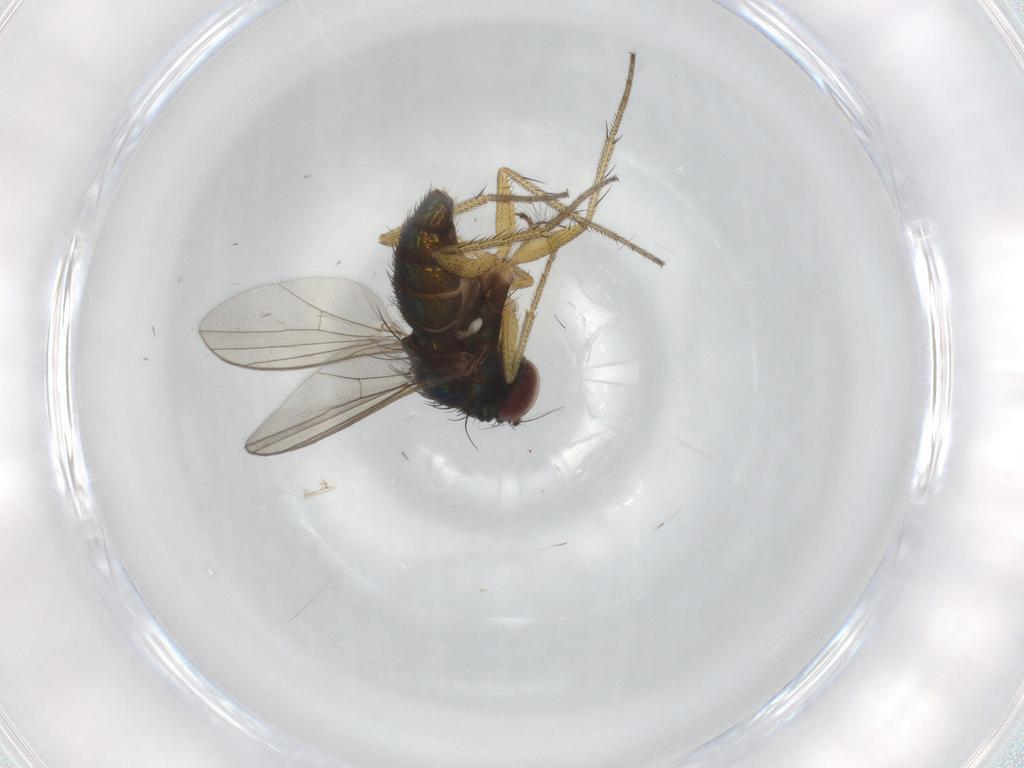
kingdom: Animalia
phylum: Arthropoda
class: Insecta
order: Diptera
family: Chironomidae
